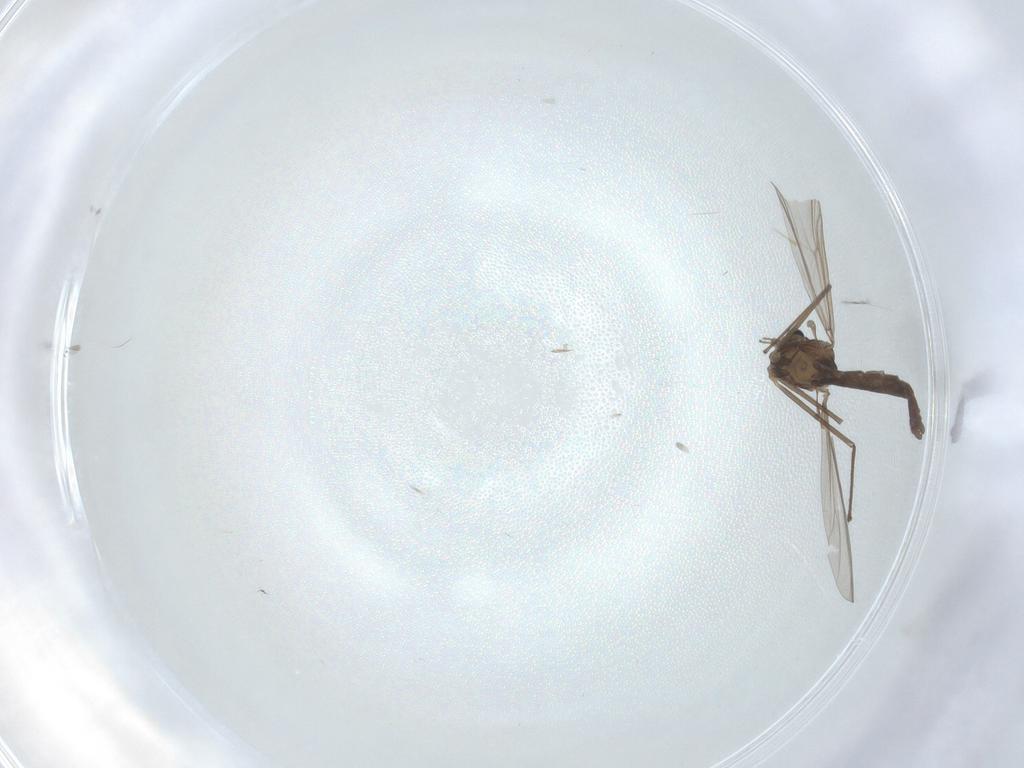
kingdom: Animalia
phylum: Arthropoda
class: Insecta
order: Diptera
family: Chironomidae
